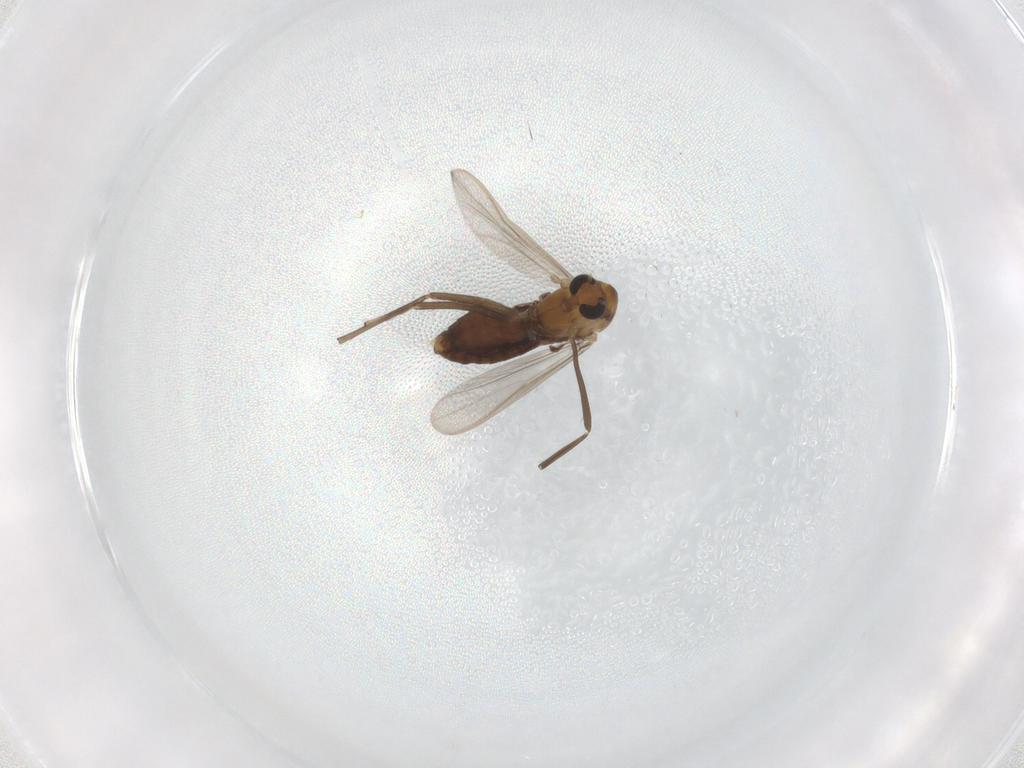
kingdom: Animalia
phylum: Arthropoda
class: Insecta
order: Diptera
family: Chironomidae
